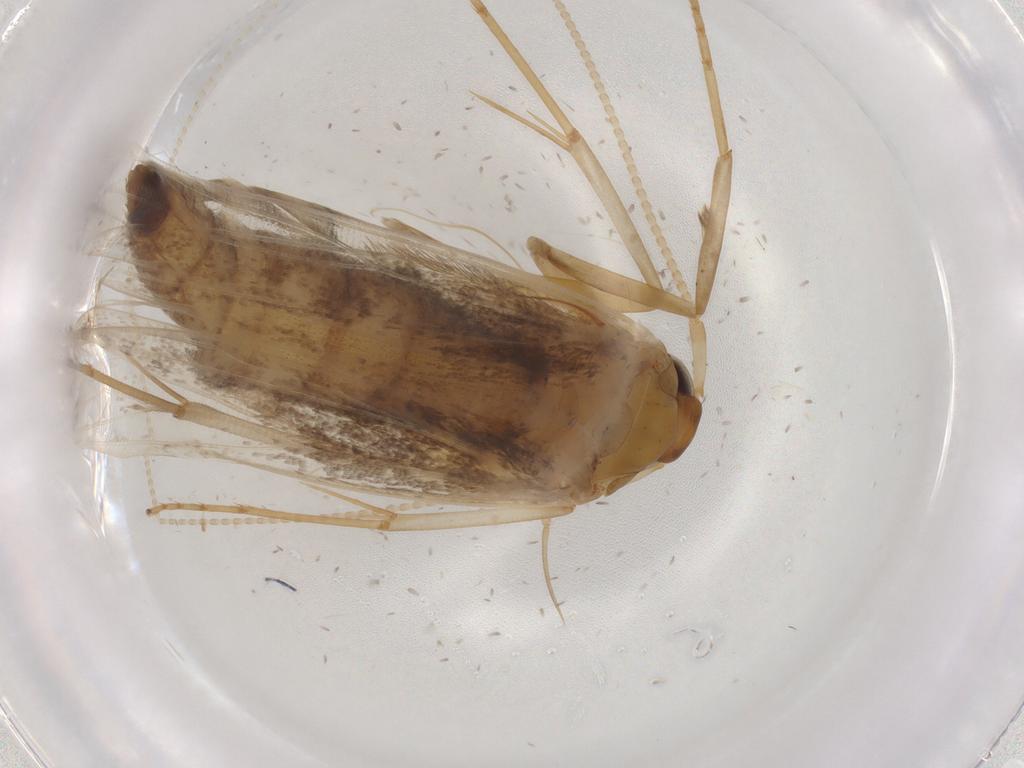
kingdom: Animalia
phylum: Arthropoda
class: Insecta
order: Lepidoptera
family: Pterolonchidae
